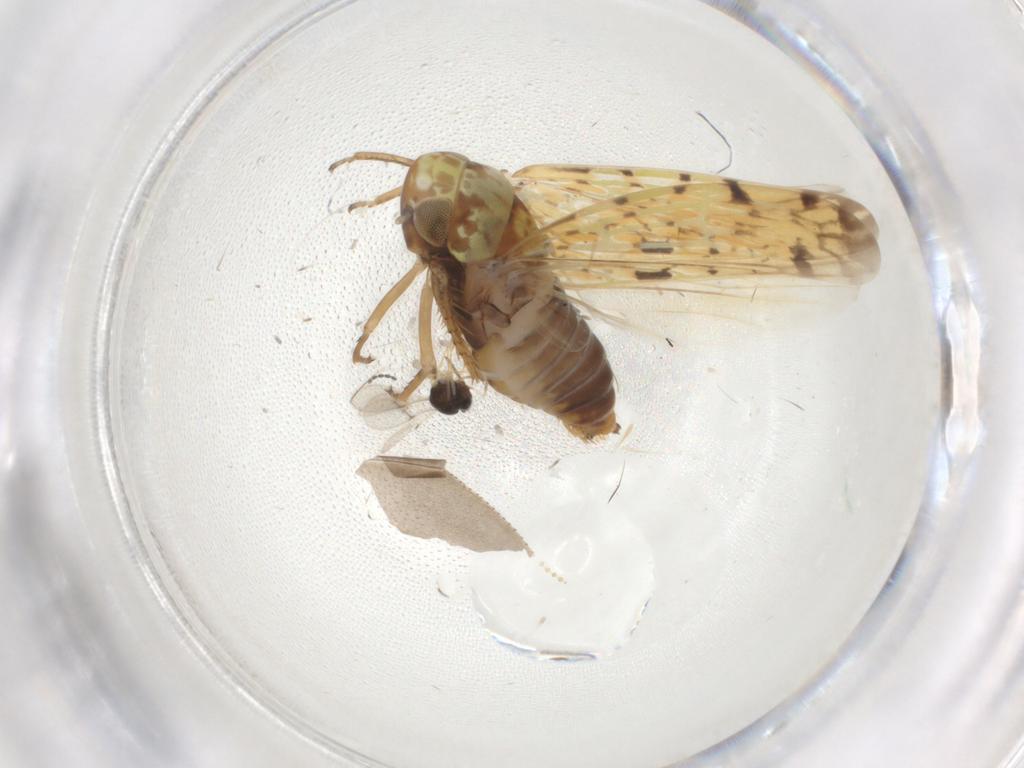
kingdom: Animalia
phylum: Arthropoda
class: Insecta
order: Hemiptera
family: Cicadellidae
